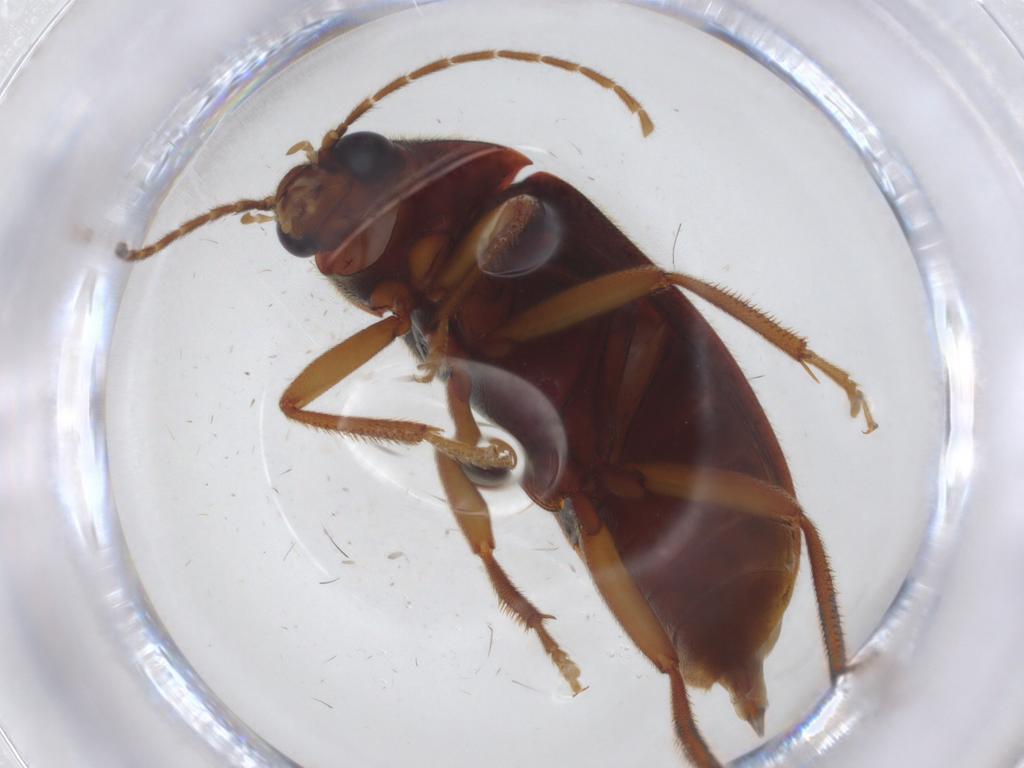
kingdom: Animalia
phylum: Arthropoda
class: Insecta
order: Coleoptera
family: Ptilodactylidae
